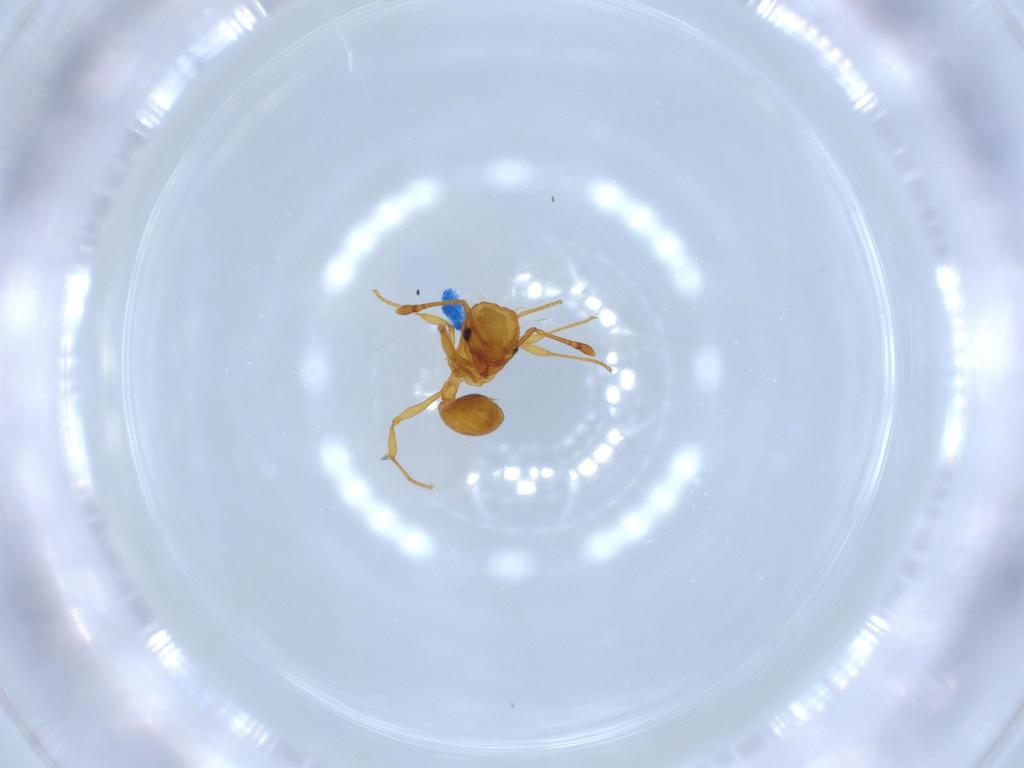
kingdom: Animalia
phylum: Arthropoda
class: Insecta
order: Hymenoptera
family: Formicidae
